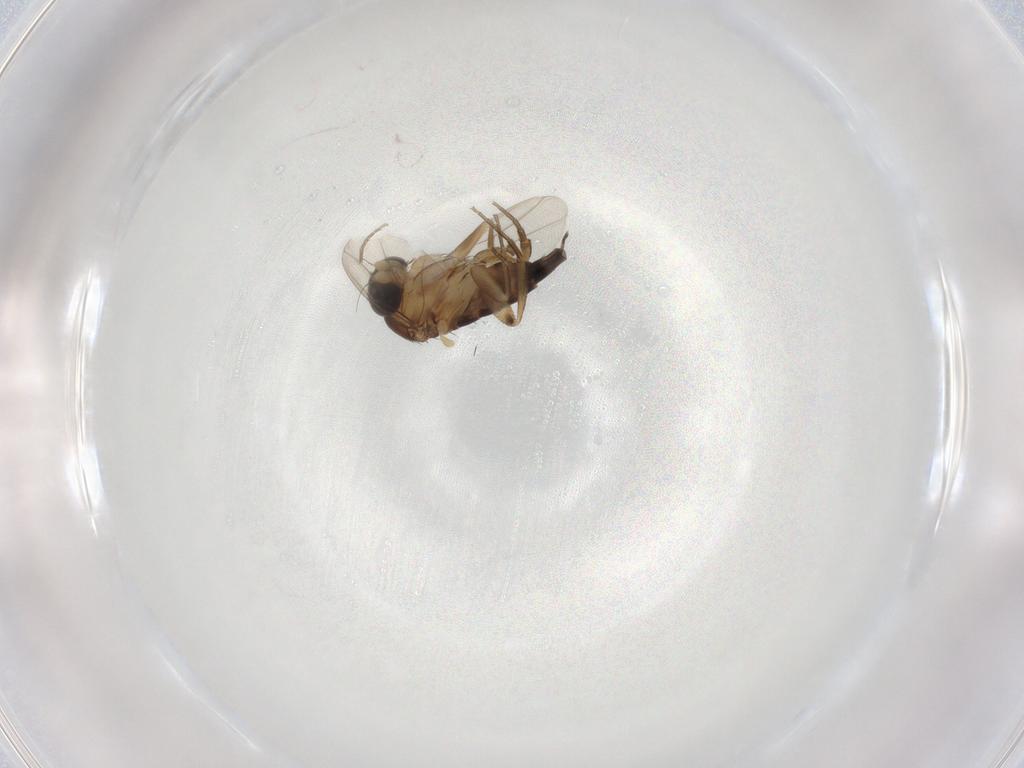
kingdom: Animalia
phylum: Arthropoda
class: Insecta
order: Diptera
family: Phoridae
